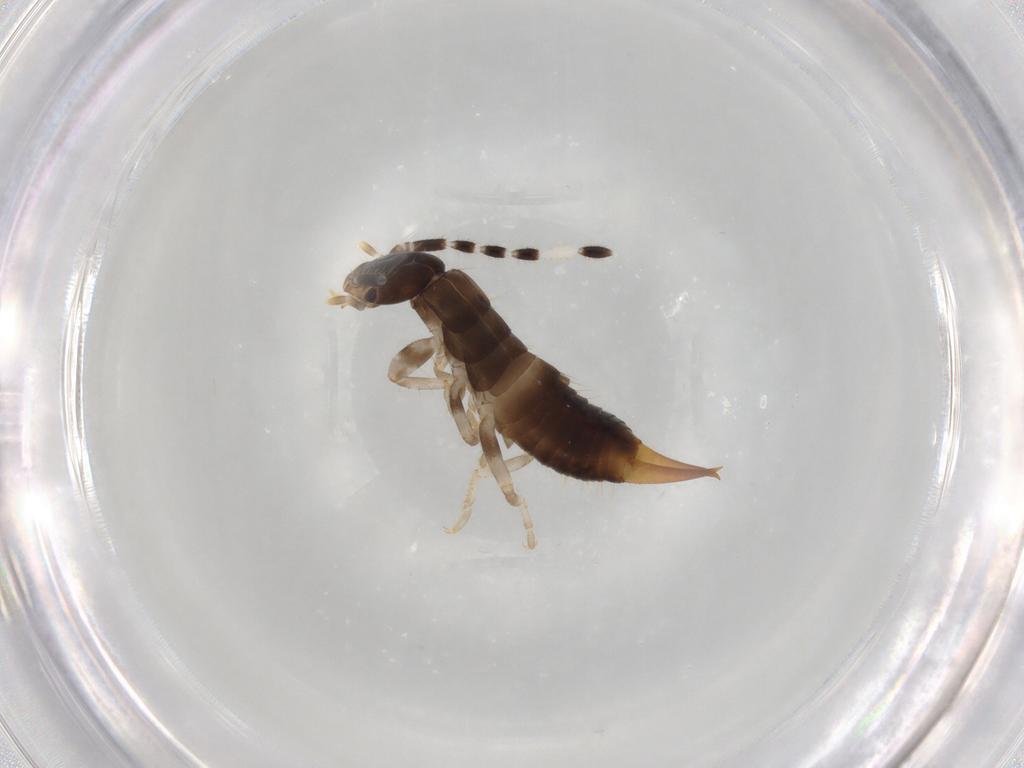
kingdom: Animalia
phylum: Arthropoda
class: Insecta
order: Dermaptera
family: Anisolabididae
